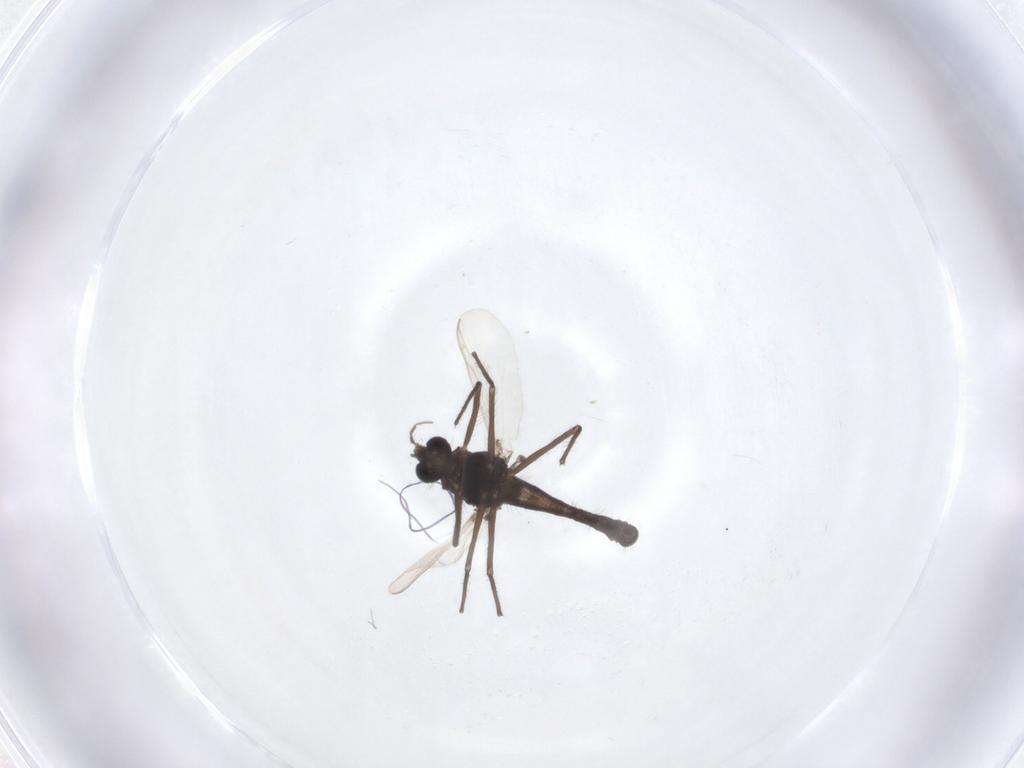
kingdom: Animalia
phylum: Arthropoda
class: Insecta
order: Diptera
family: Chironomidae
